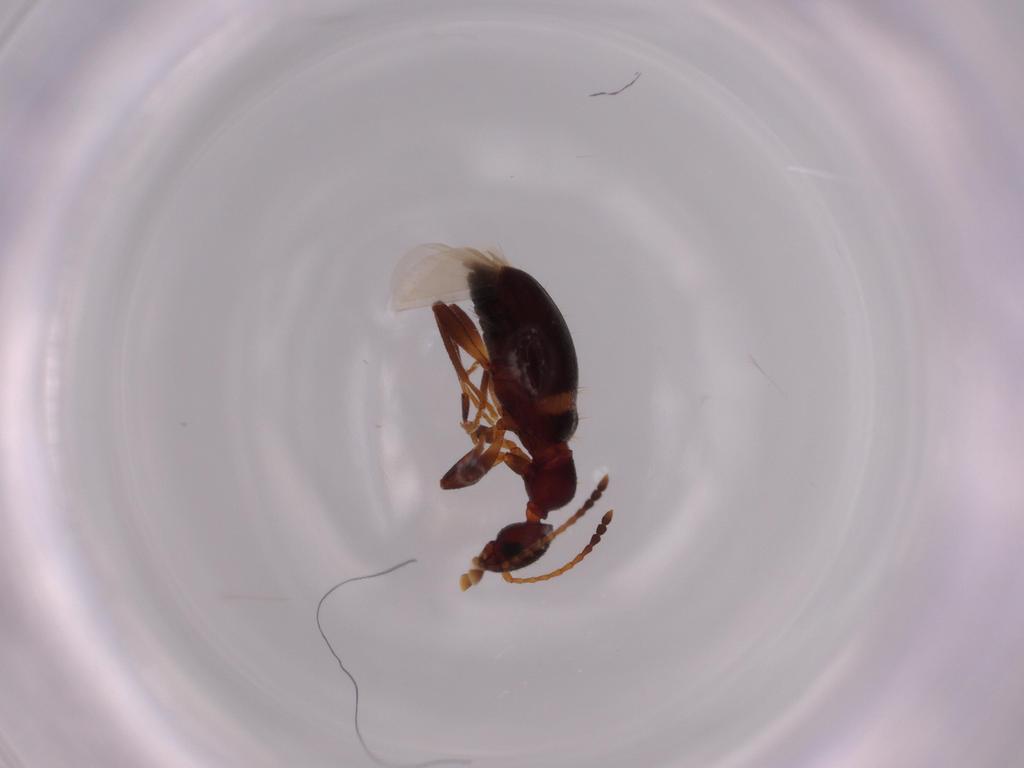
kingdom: Animalia
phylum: Arthropoda
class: Insecta
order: Coleoptera
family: Anthicidae
